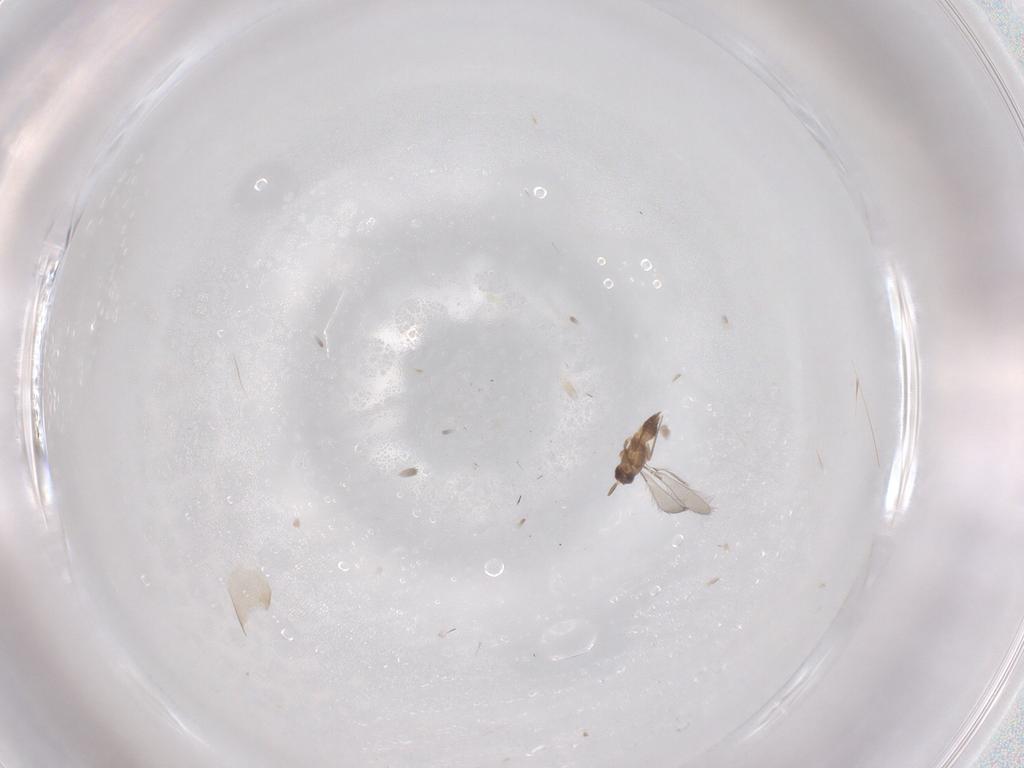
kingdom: Animalia
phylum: Arthropoda
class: Insecta
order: Hymenoptera
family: Mymaridae
